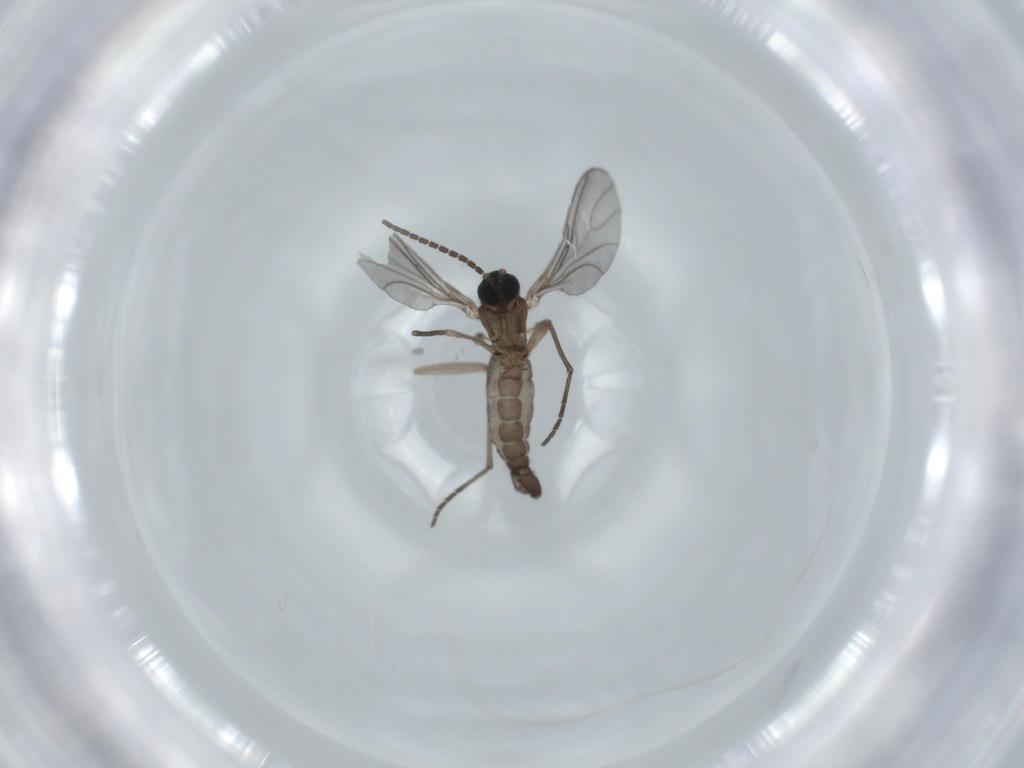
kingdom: Animalia
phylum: Arthropoda
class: Insecta
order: Diptera
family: Sciaridae
